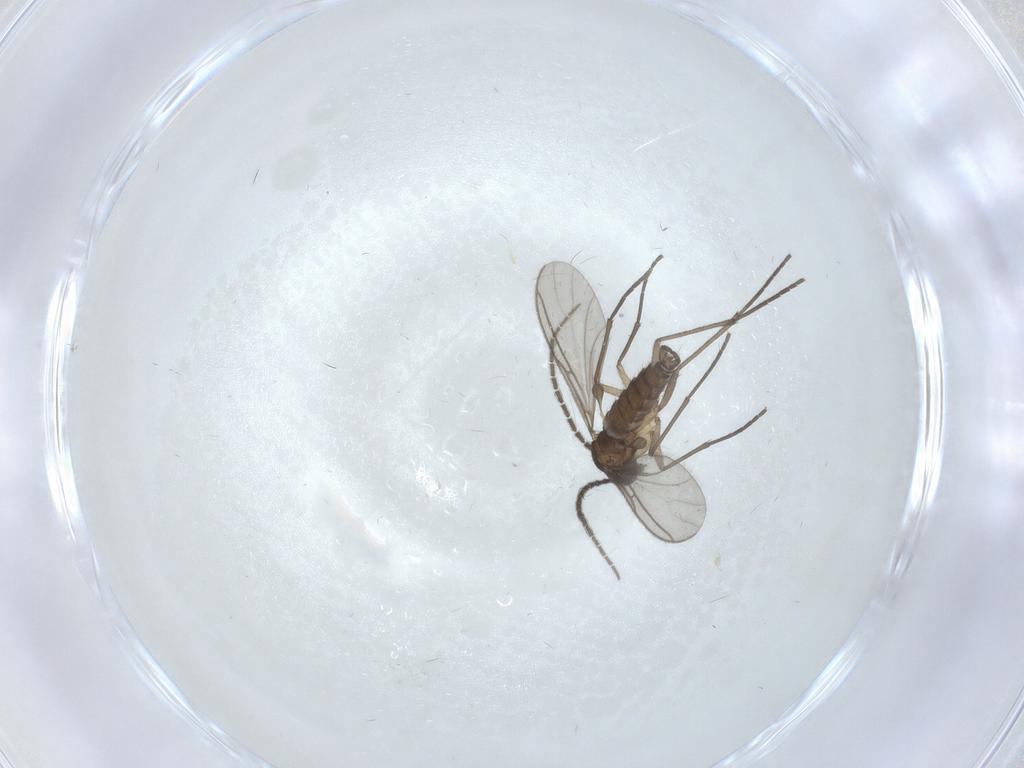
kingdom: Animalia
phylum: Arthropoda
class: Insecta
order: Diptera
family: Sciaridae
